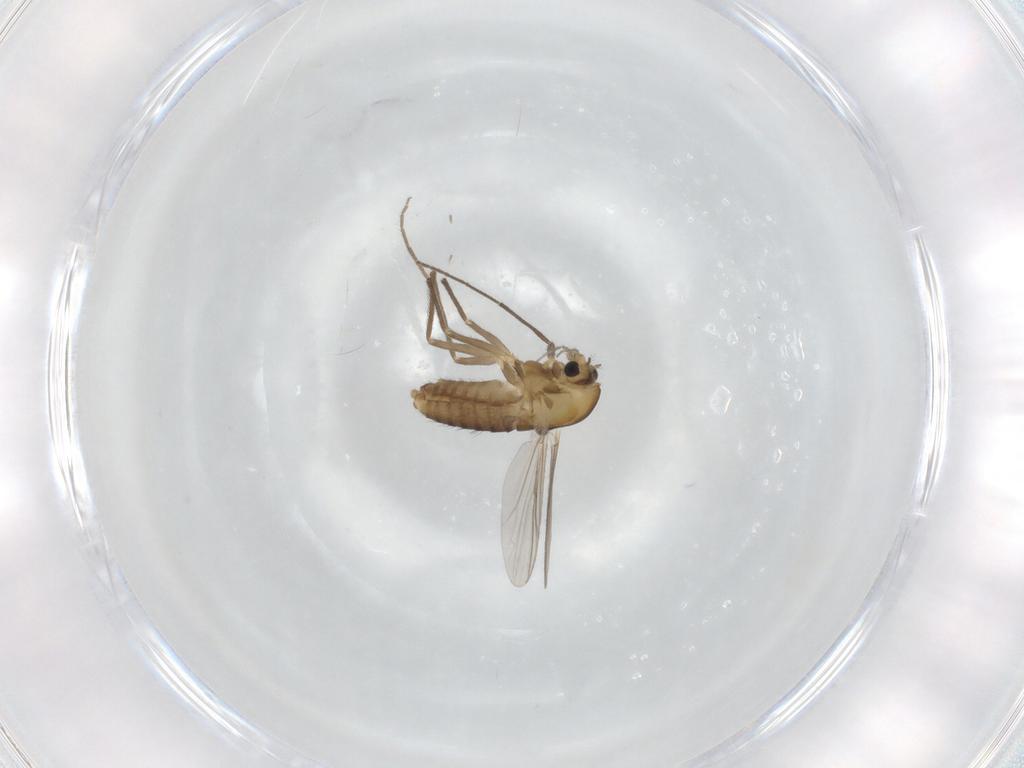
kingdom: Animalia
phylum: Arthropoda
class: Insecta
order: Diptera
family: Chironomidae
